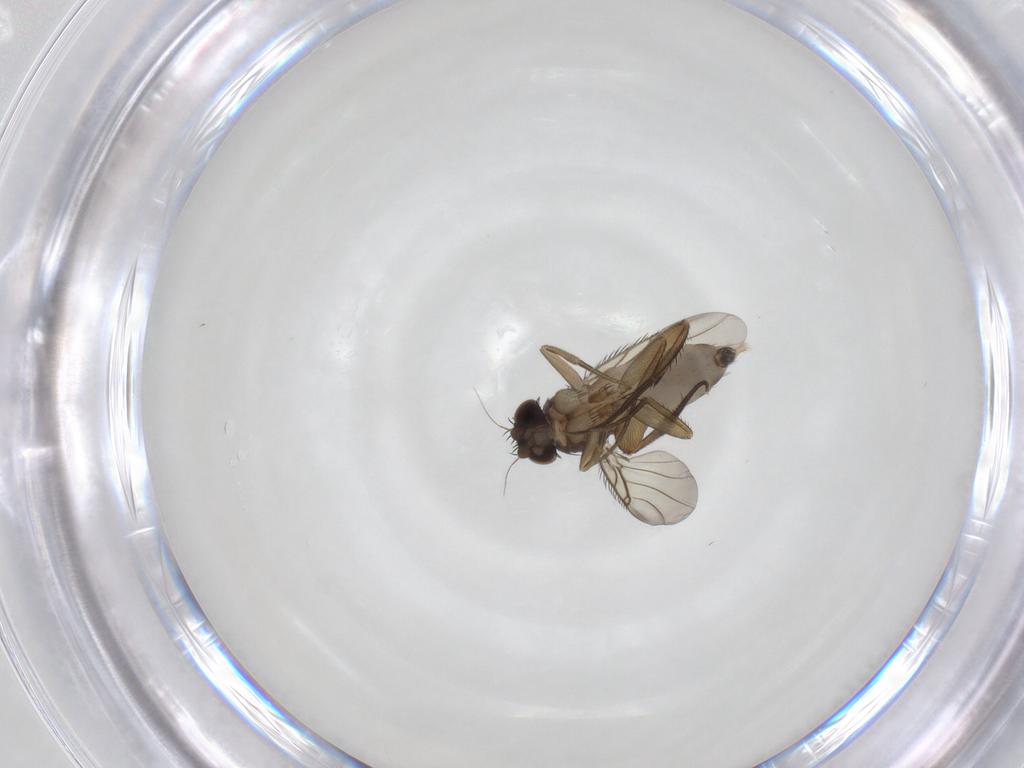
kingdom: Animalia
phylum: Arthropoda
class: Insecta
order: Diptera
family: Phoridae
